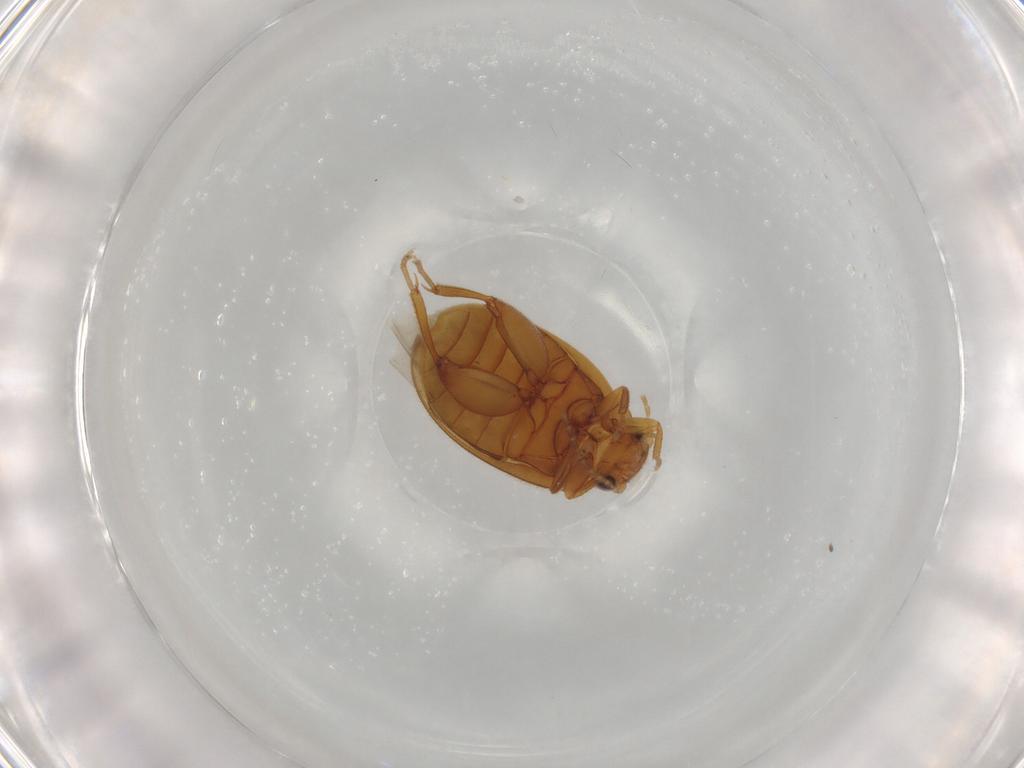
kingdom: Animalia
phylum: Arthropoda
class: Insecta
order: Coleoptera
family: Scirtidae
